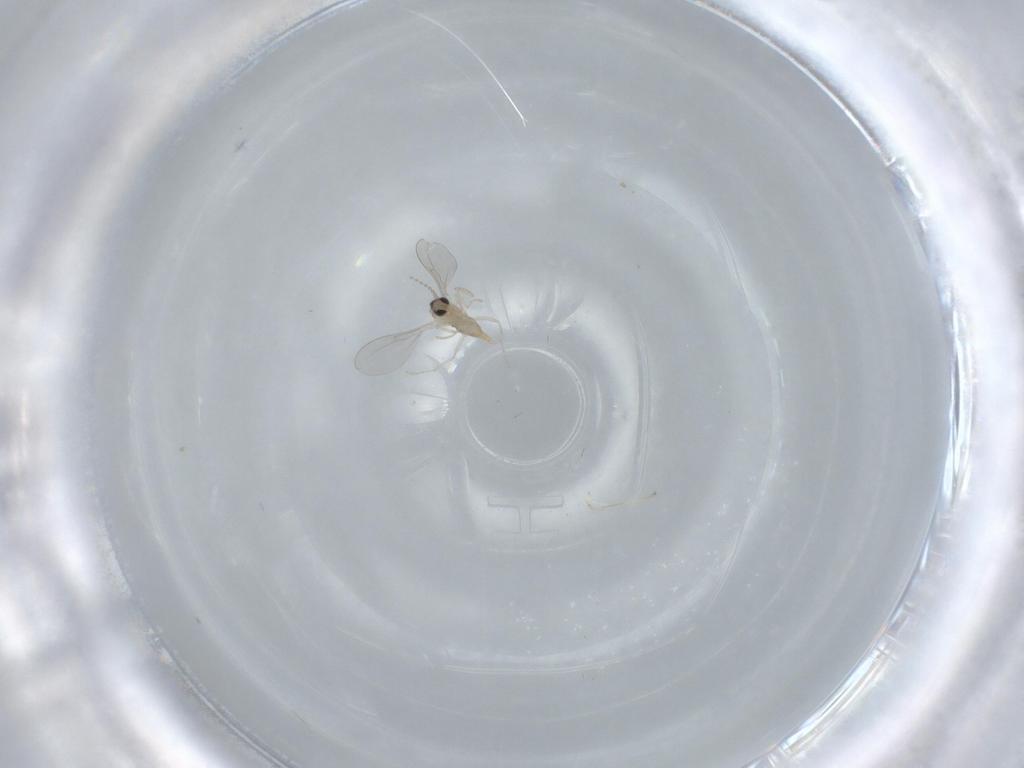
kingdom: Animalia
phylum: Arthropoda
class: Insecta
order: Diptera
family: Cecidomyiidae
